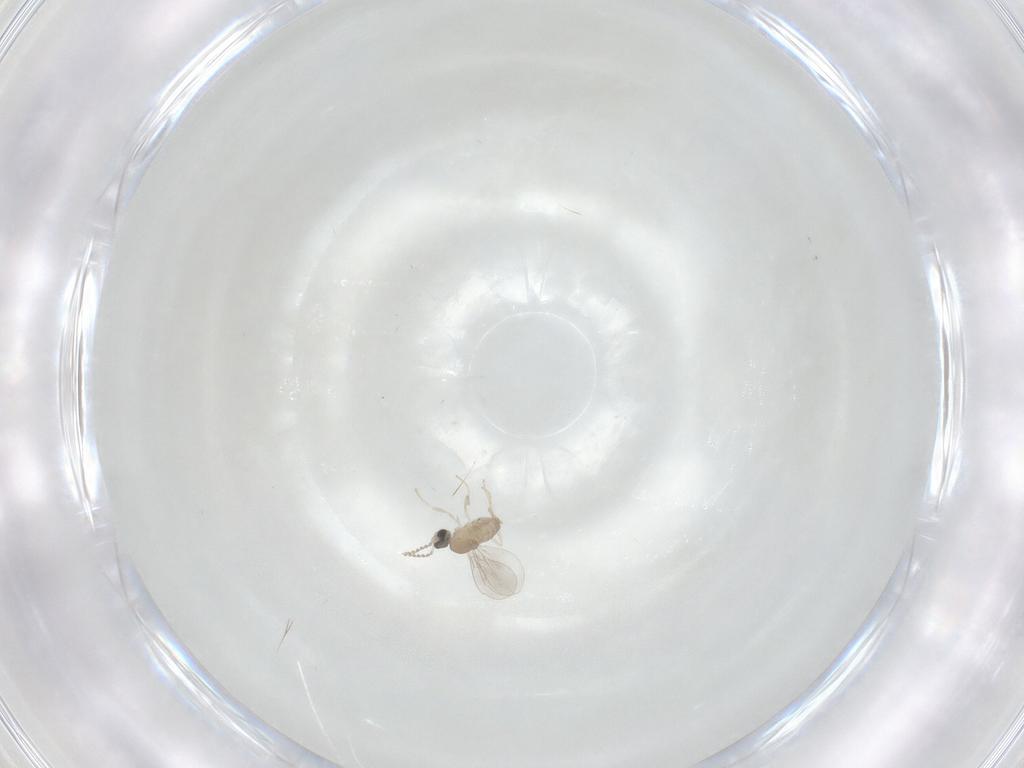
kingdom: Animalia
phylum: Arthropoda
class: Insecta
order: Diptera
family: Cecidomyiidae
